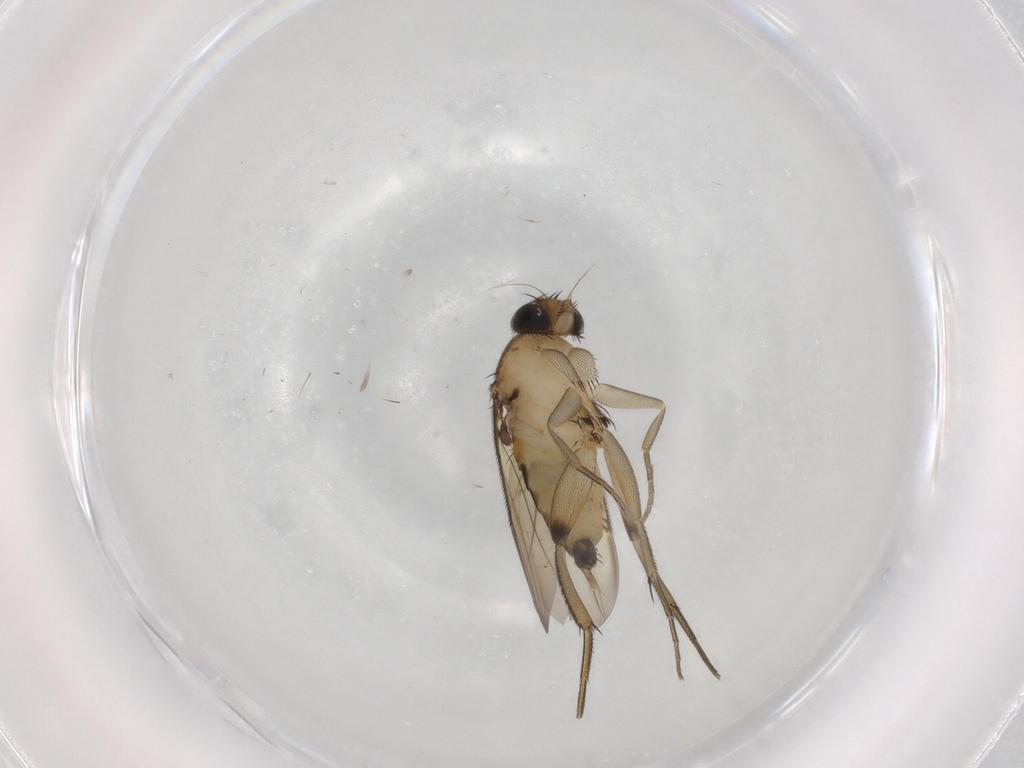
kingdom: Animalia
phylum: Arthropoda
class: Insecta
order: Diptera
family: Phoridae
